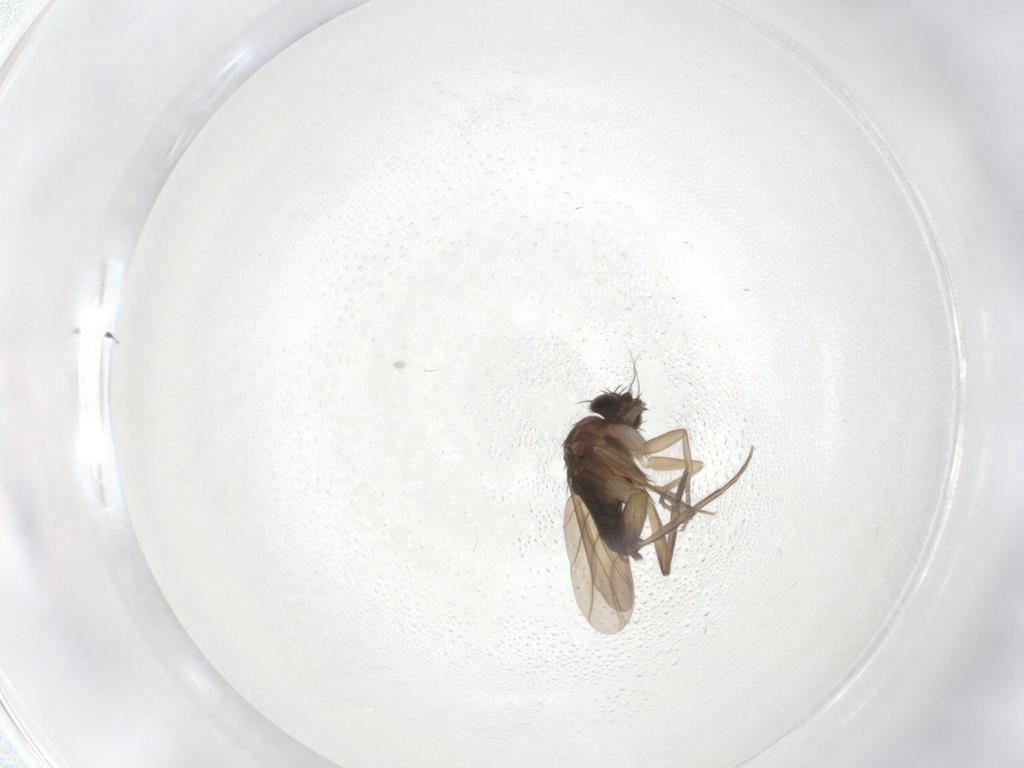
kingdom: Animalia
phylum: Arthropoda
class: Insecta
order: Diptera
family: Phoridae
